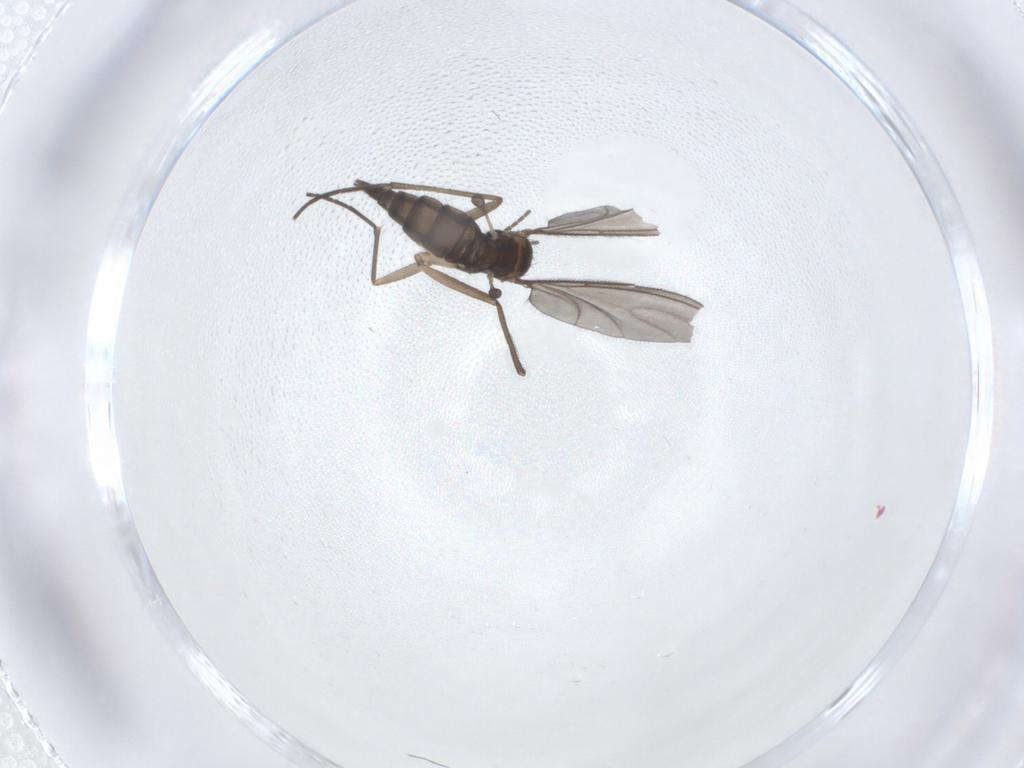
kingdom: Animalia
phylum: Arthropoda
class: Insecta
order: Diptera
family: Sciaridae
